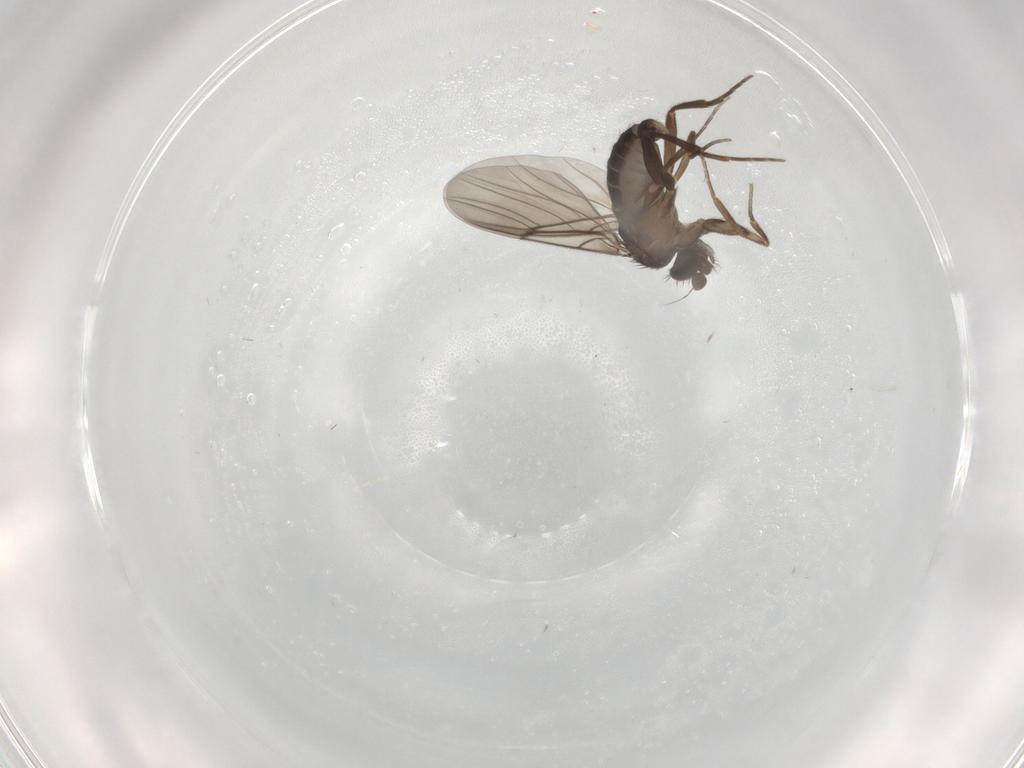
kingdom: Animalia
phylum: Arthropoda
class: Insecta
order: Diptera
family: Phoridae
